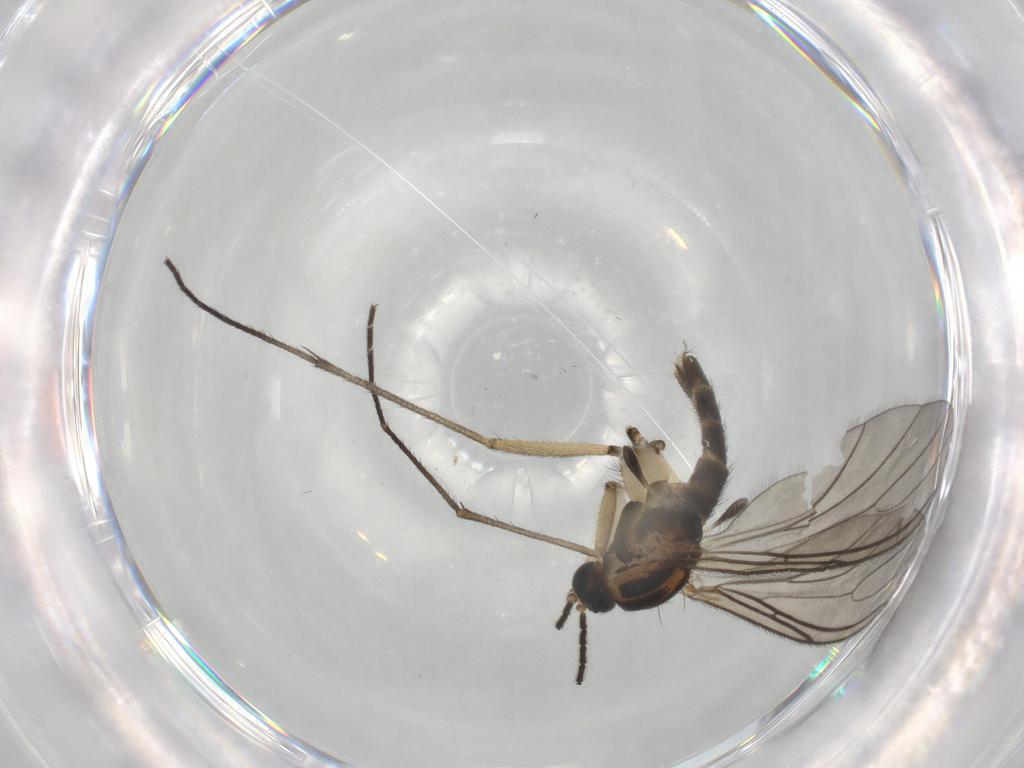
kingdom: Animalia
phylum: Arthropoda
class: Insecta
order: Diptera
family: Sciaridae
